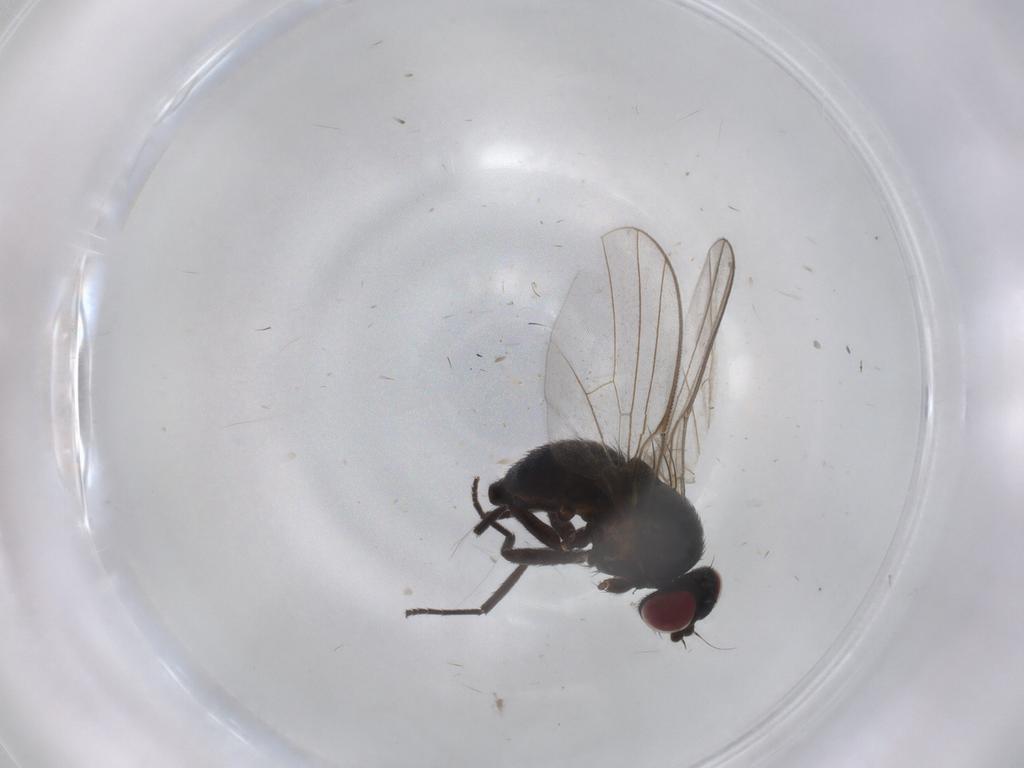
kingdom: Animalia
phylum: Arthropoda
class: Insecta
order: Diptera
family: Agromyzidae
